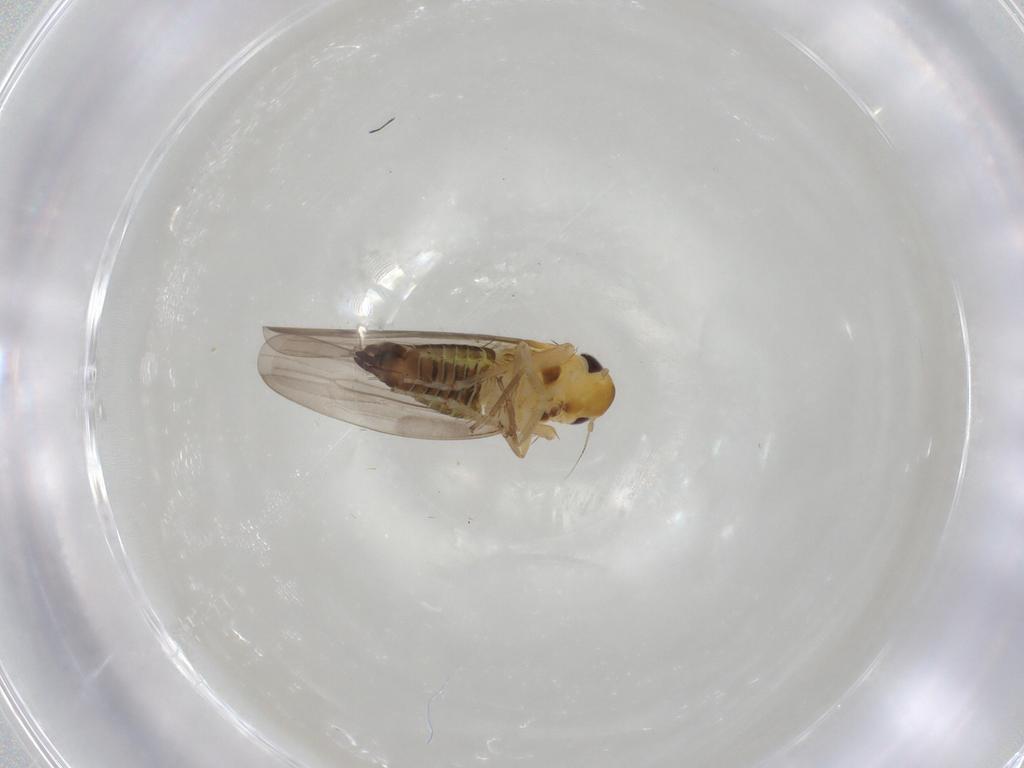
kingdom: Animalia
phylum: Arthropoda
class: Insecta
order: Hemiptera
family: Cicadellidae
